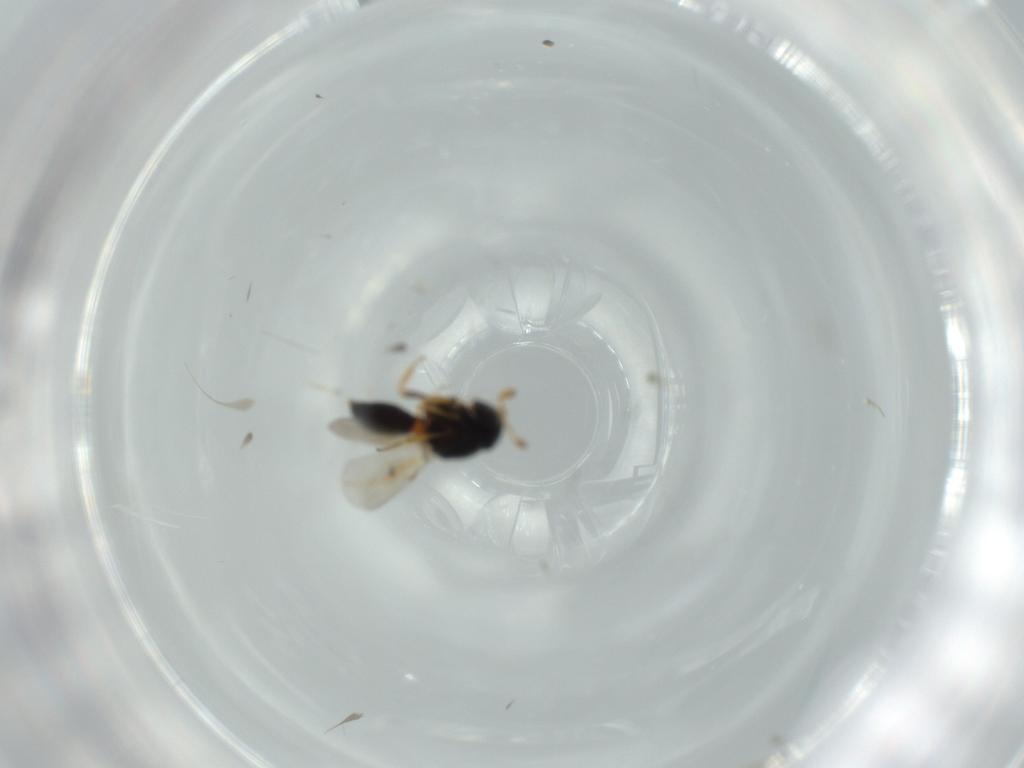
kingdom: Animalia
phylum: Arthropoda
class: Insecta
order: Hymenoptera
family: Scelionidae
